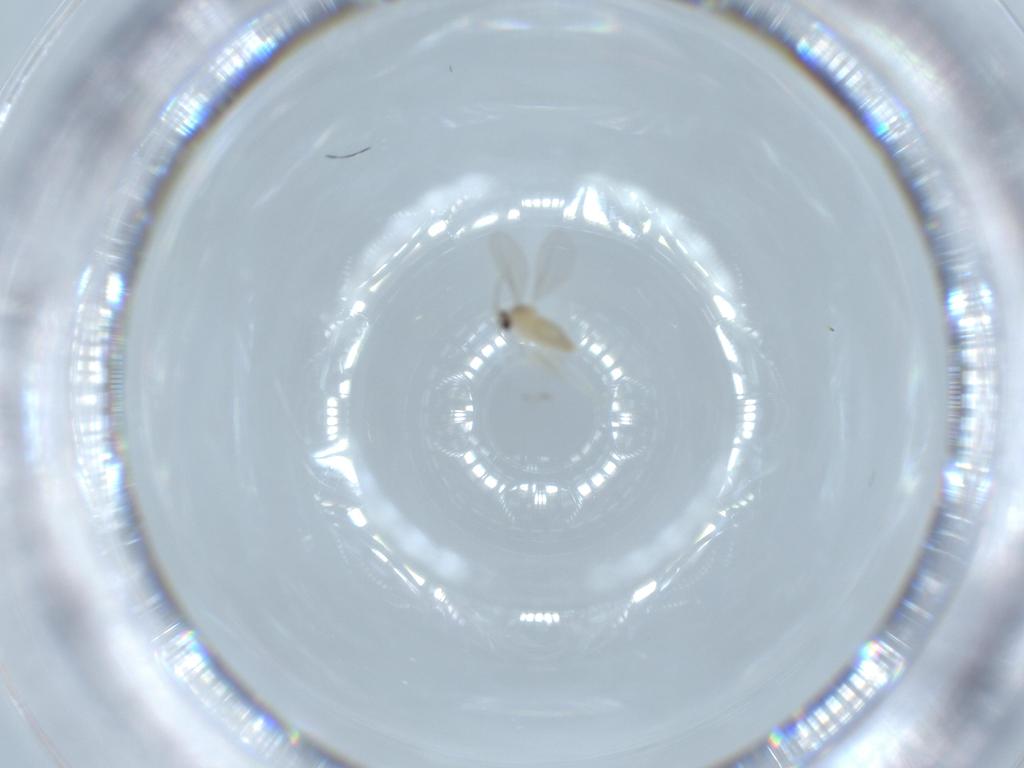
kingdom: Animalia
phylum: Arthropoda
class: Insecta
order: Diptera
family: Cecidomyiidae
